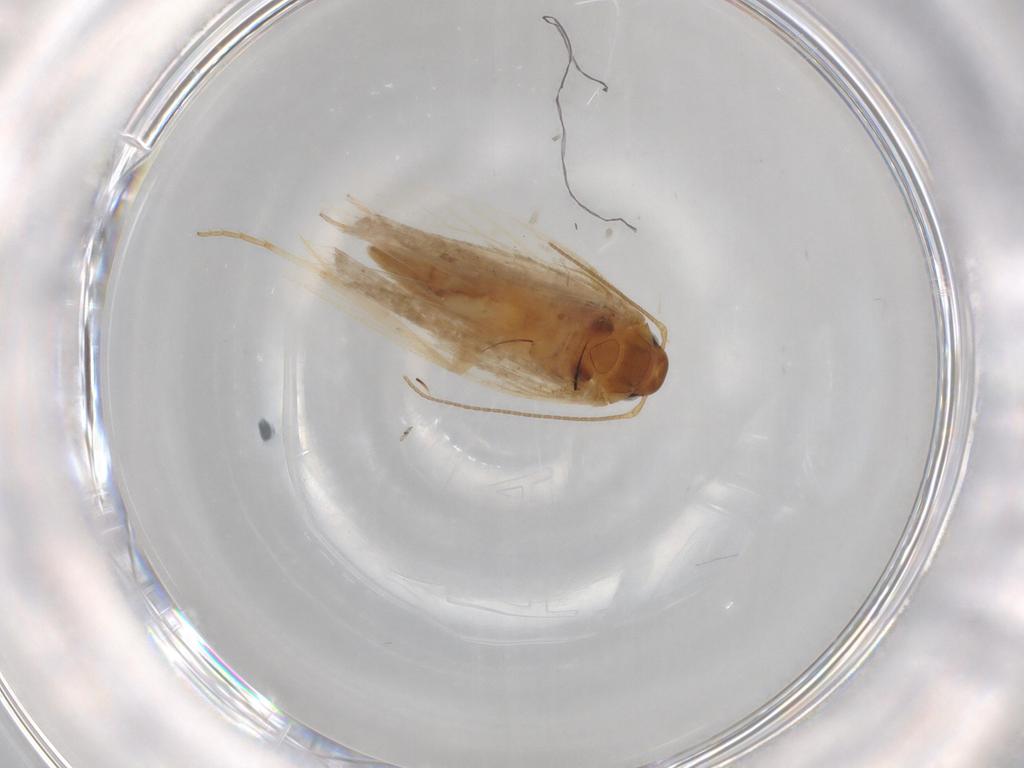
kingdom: Animalia
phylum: Arthropoda
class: Insecta
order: Lepidoptera
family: Gelechiidae
